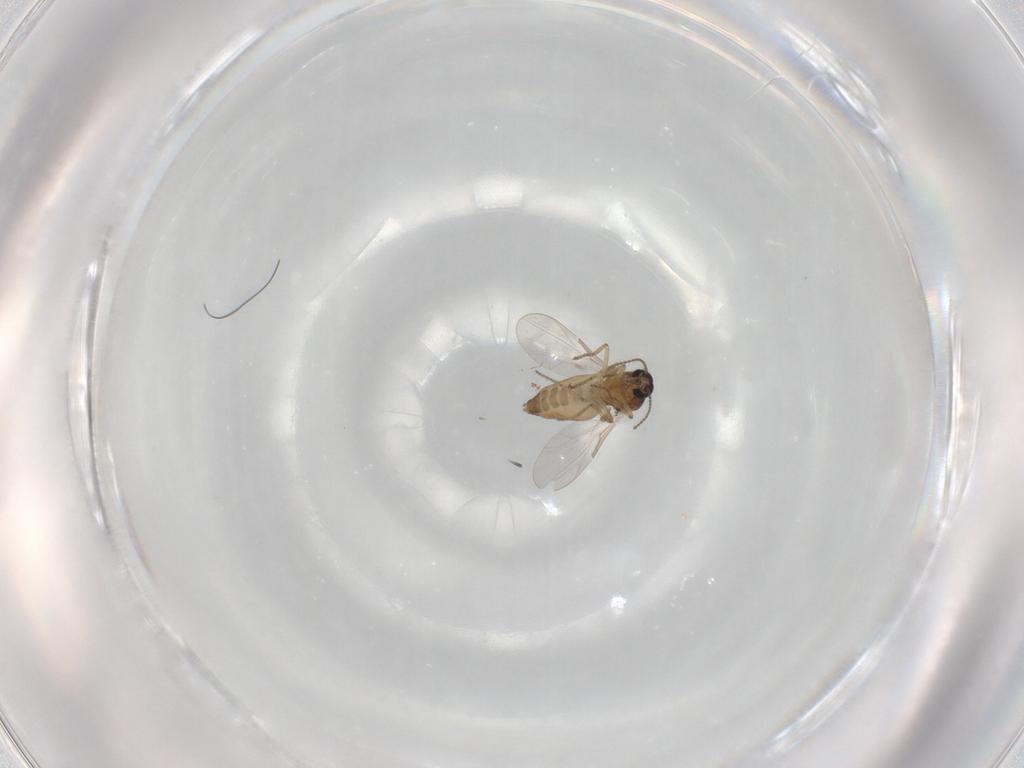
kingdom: Animalia
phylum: Arthropoda
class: Insecta
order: Diptera
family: Ceratopogonidae
